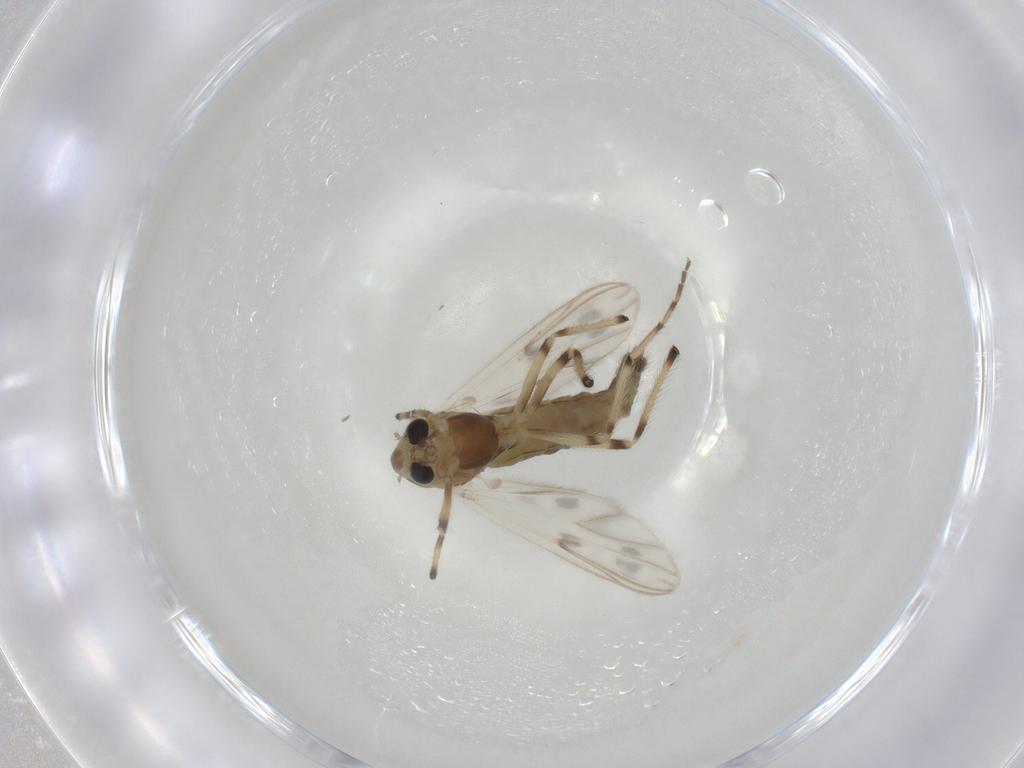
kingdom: Animalia
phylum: Arthropoda
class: Insecta
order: Diptera
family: Chironomidae
